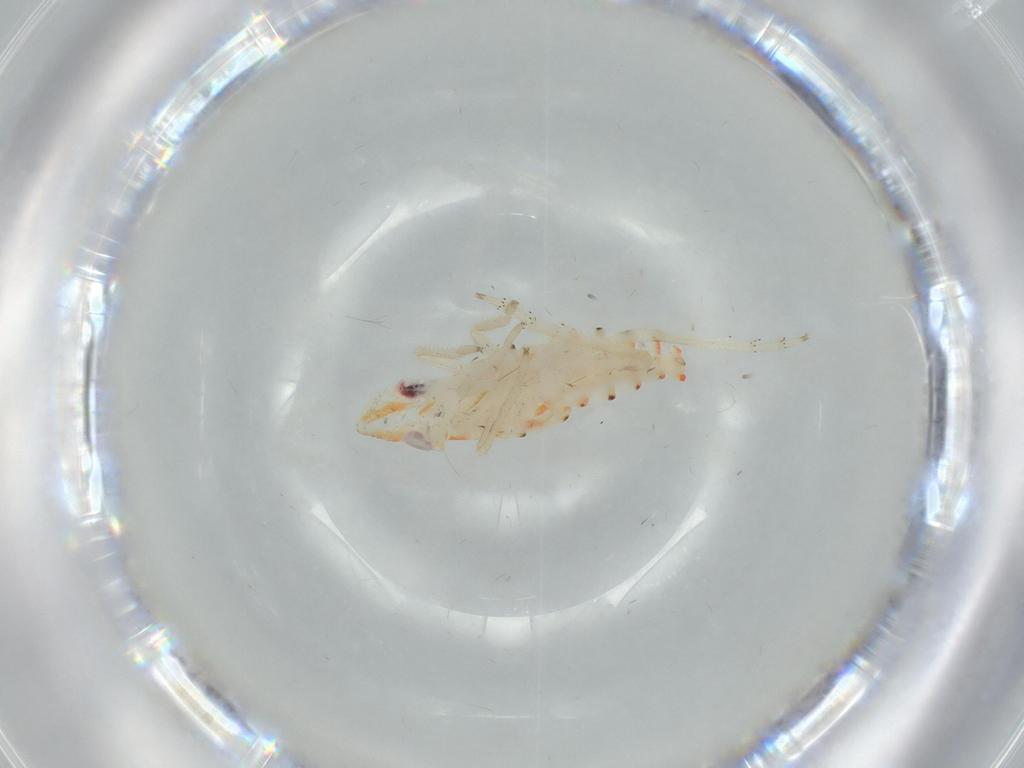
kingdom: Animalia
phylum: Arthropoda
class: Insecta
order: Hemiptera
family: Tropiduchidae
